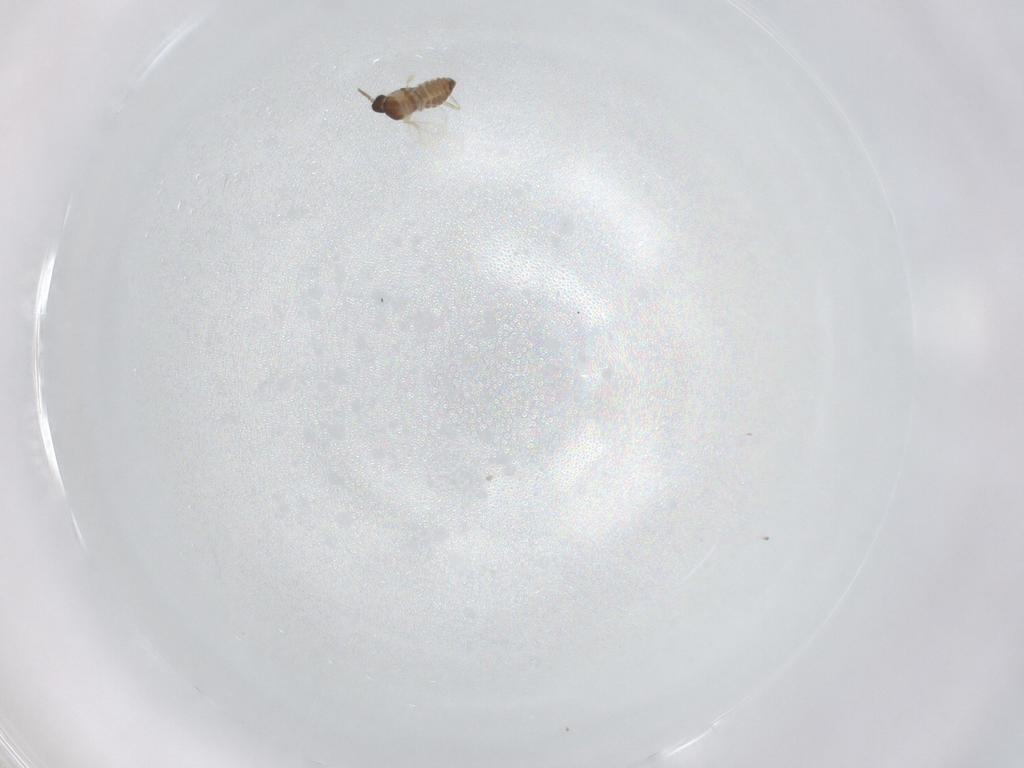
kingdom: Animalia
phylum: Arthropoda
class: Insecta
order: Diptera
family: Cecidomyiidae
